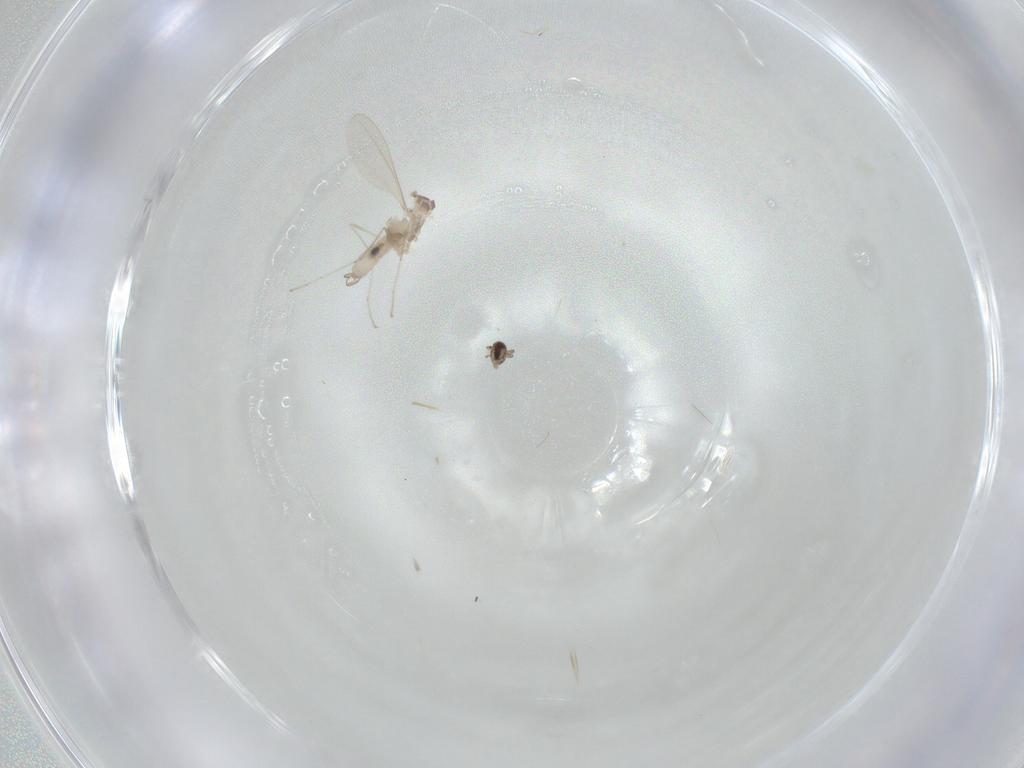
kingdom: Animalia
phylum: Arthropoda
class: Insecta
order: Diptera
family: Cecidomyiidae
